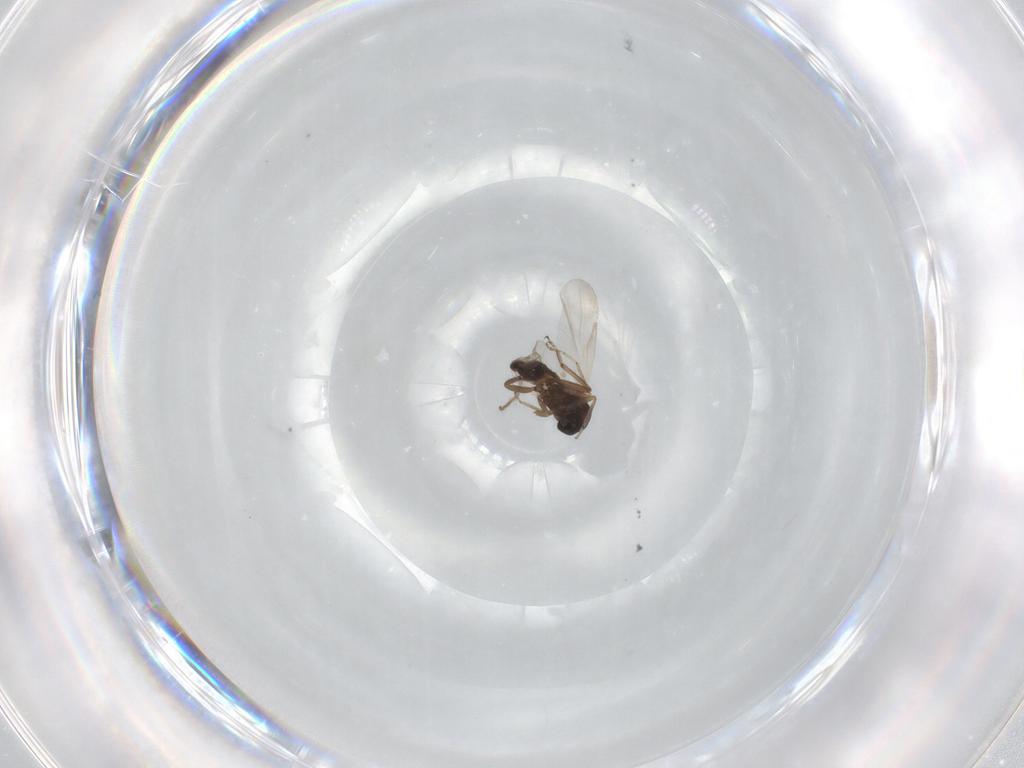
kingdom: Animalia
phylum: Arthropoda
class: Insecta
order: Diptera
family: Ceratopogonidae
